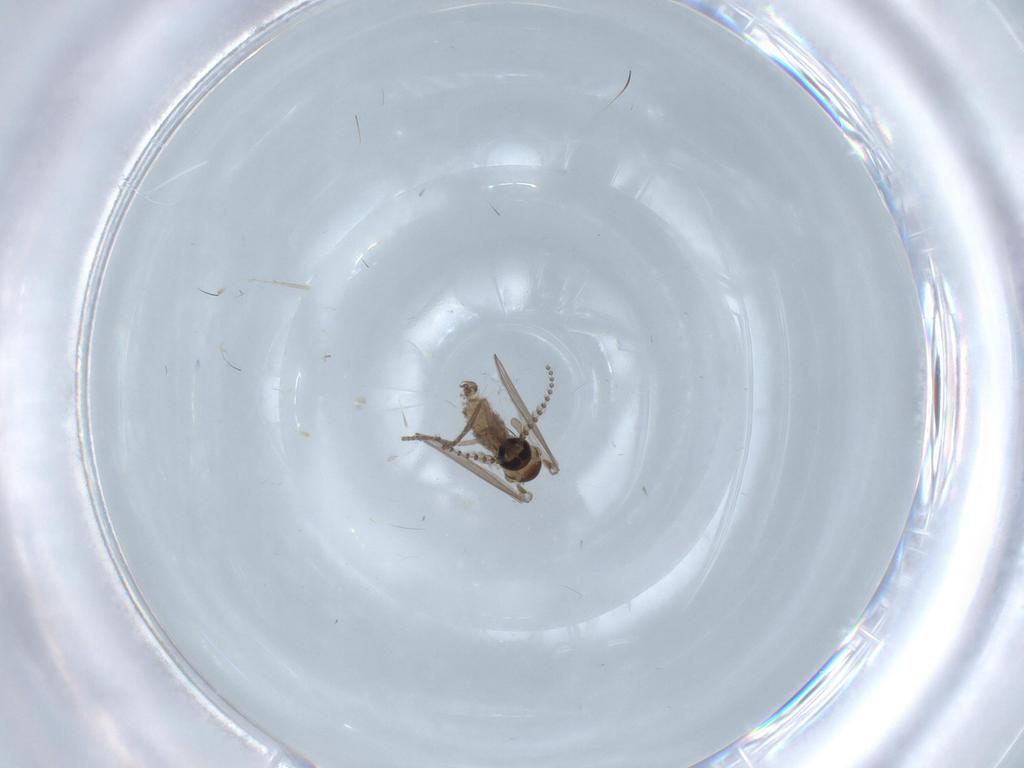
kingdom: Animalia
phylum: Arthropoda
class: Insecta
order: Diptera
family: Psychodidae
